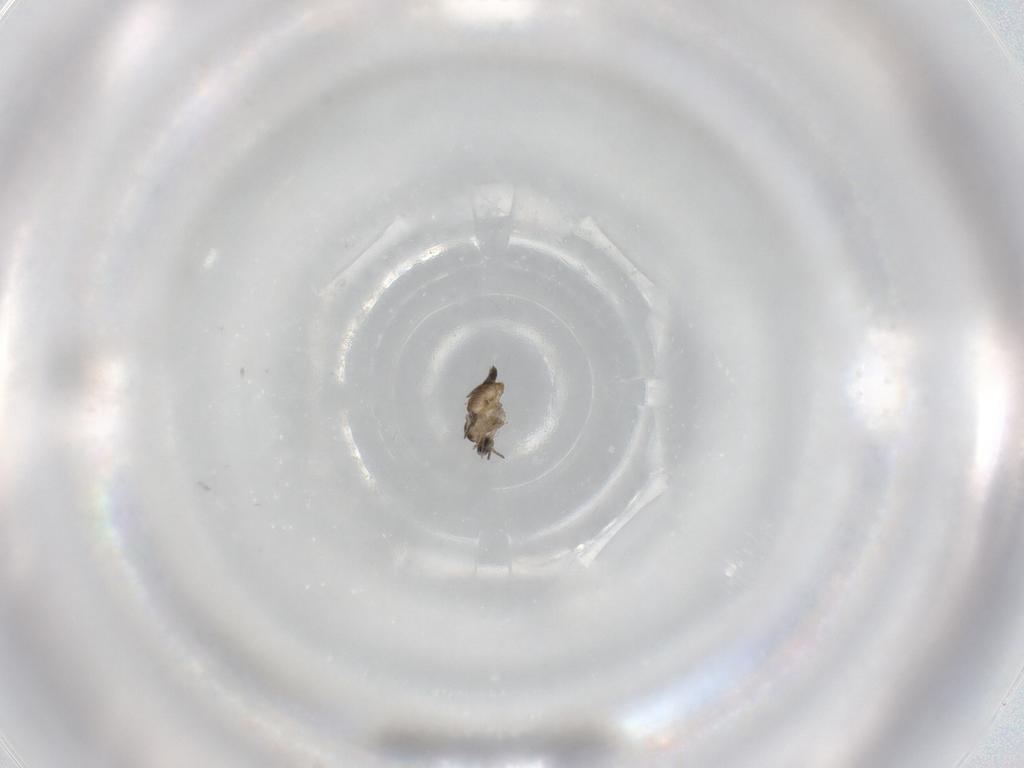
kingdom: Animalia
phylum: Arthropoda
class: Insecta
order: Diptera
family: Cecidomyiidae
